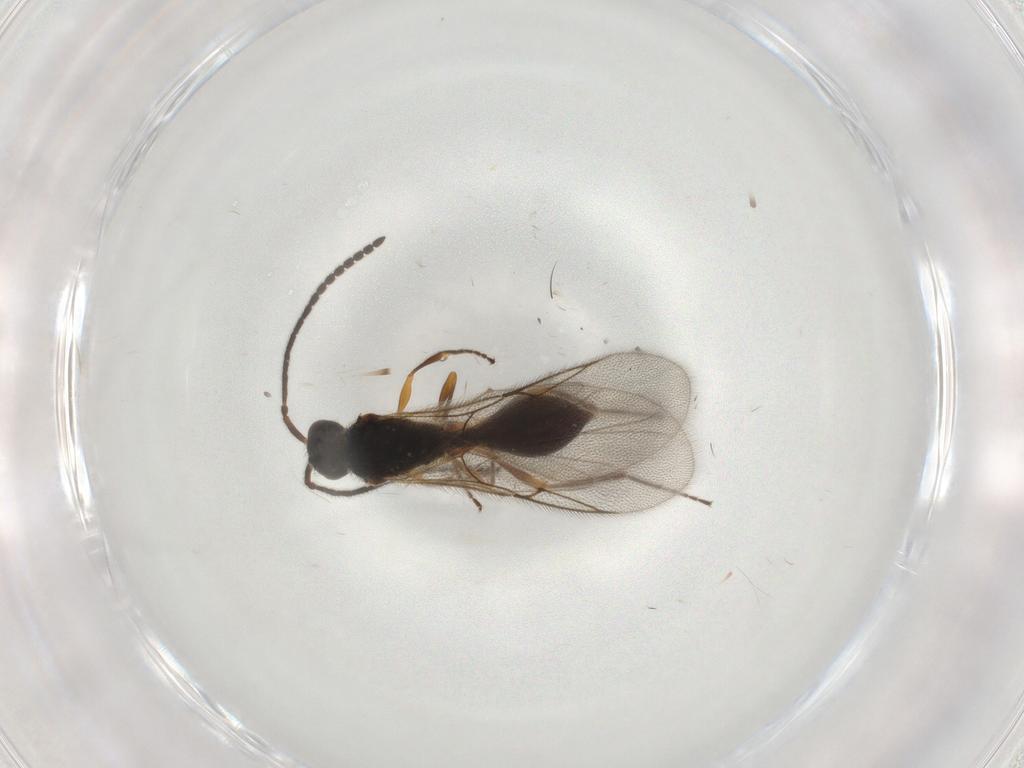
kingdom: Animalia
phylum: Arthropoda
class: Insecta
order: Hymenoptera
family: Diapriidae
